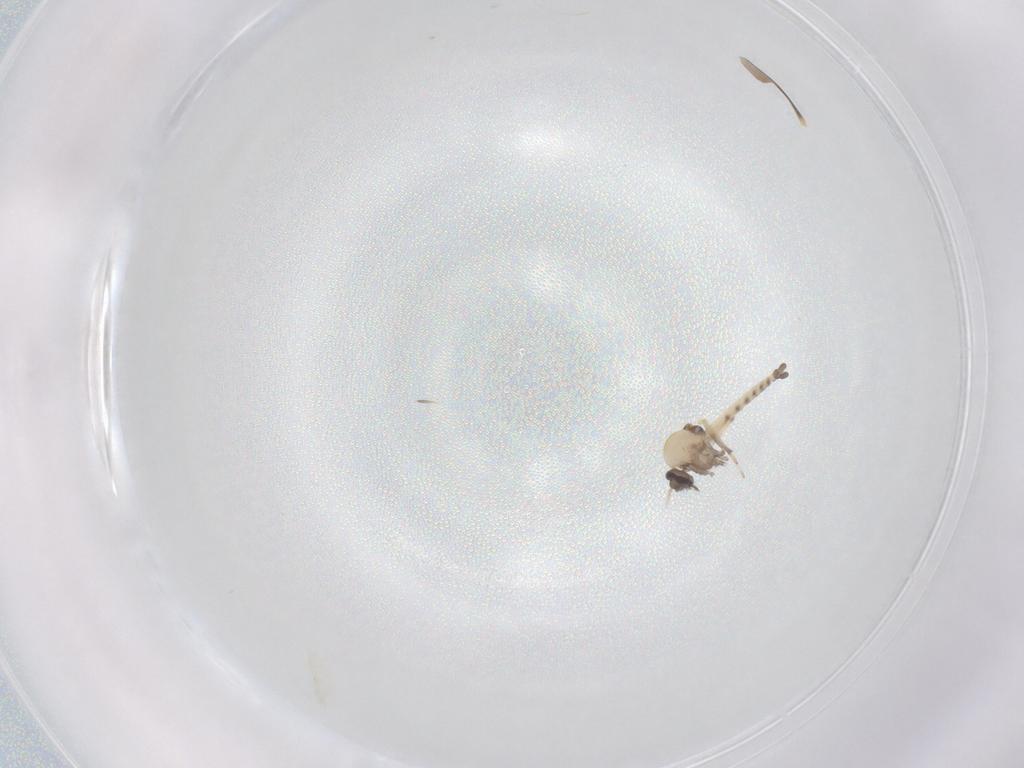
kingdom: Animalia
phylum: Arthropoda
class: Insecta
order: Diptera
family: Ceratopogonidae
